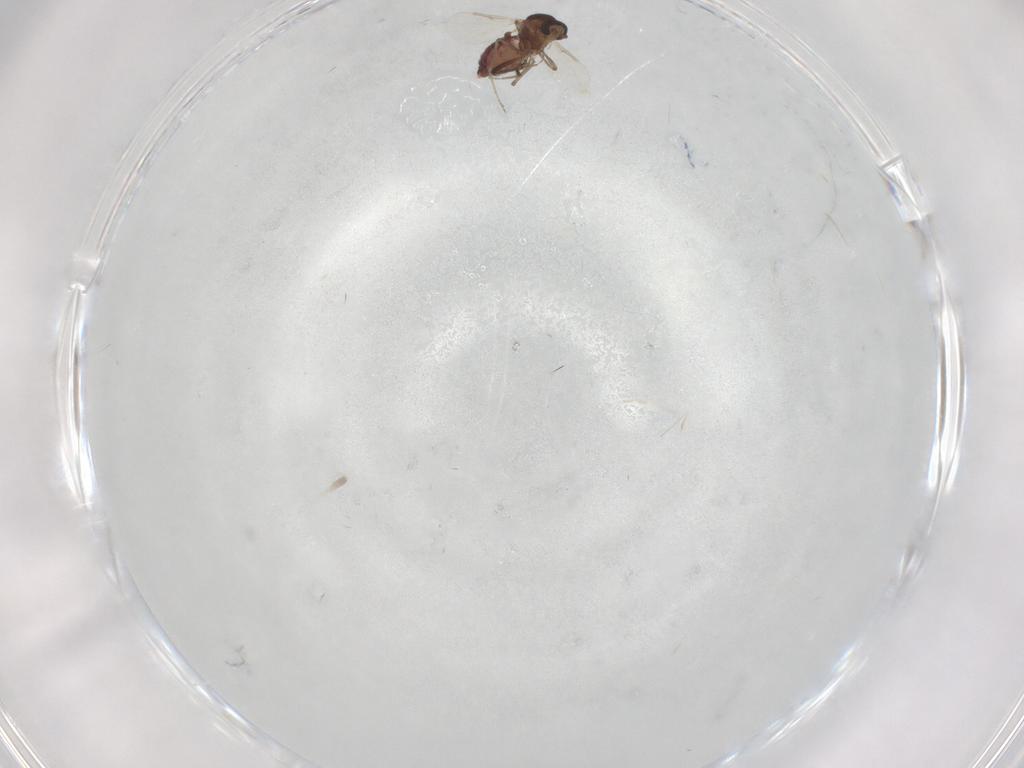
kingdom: Animalia
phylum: Arthropoda
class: Insecta
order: Diptera
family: Ceratopogonidae
